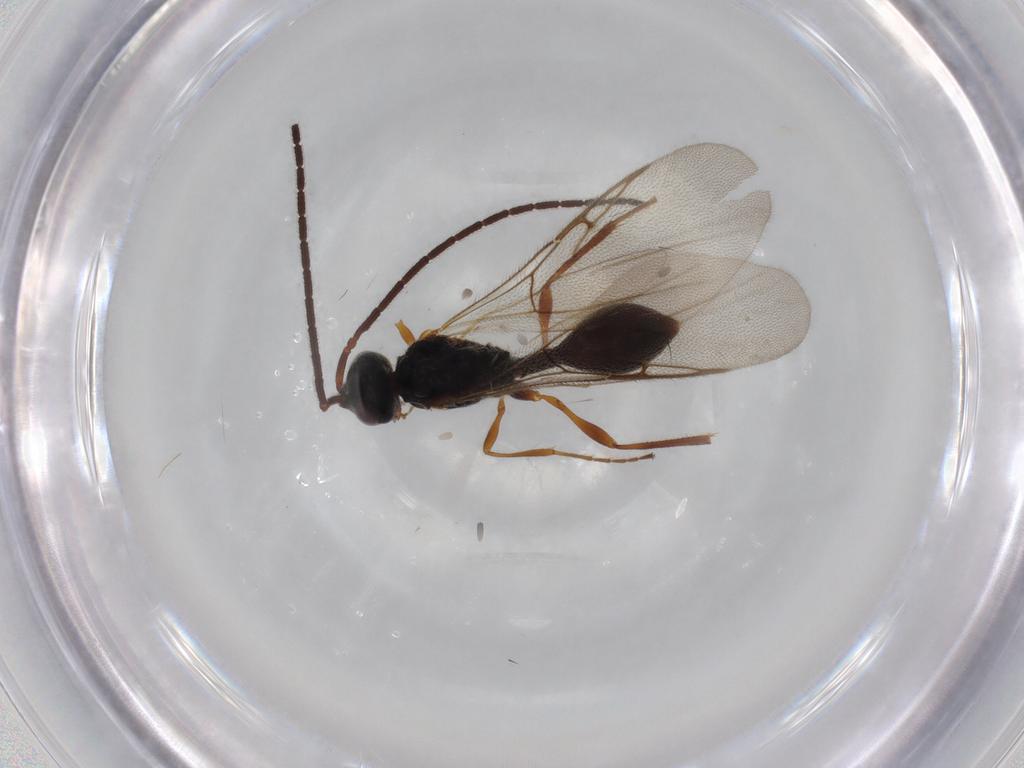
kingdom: Animalia
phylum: Arthropoda
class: Insecta
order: Hymenoptera
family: Diapriidae
